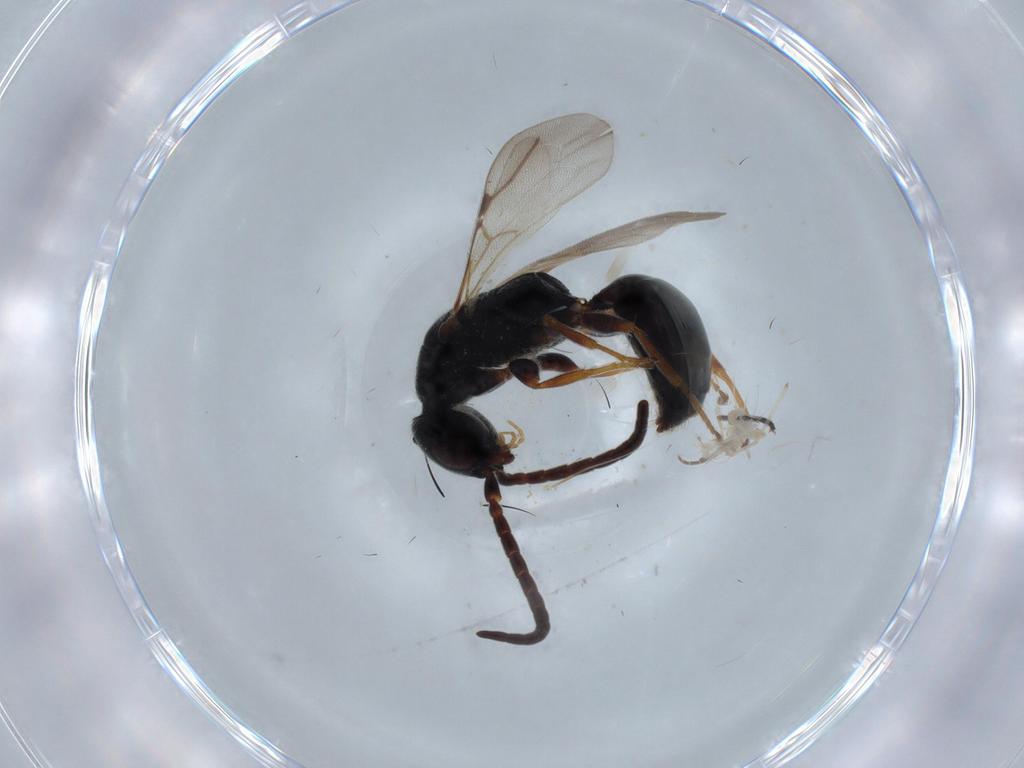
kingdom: Animalia
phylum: Arthropoda
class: Insecta
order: Hymenoptera
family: Bethylidae
